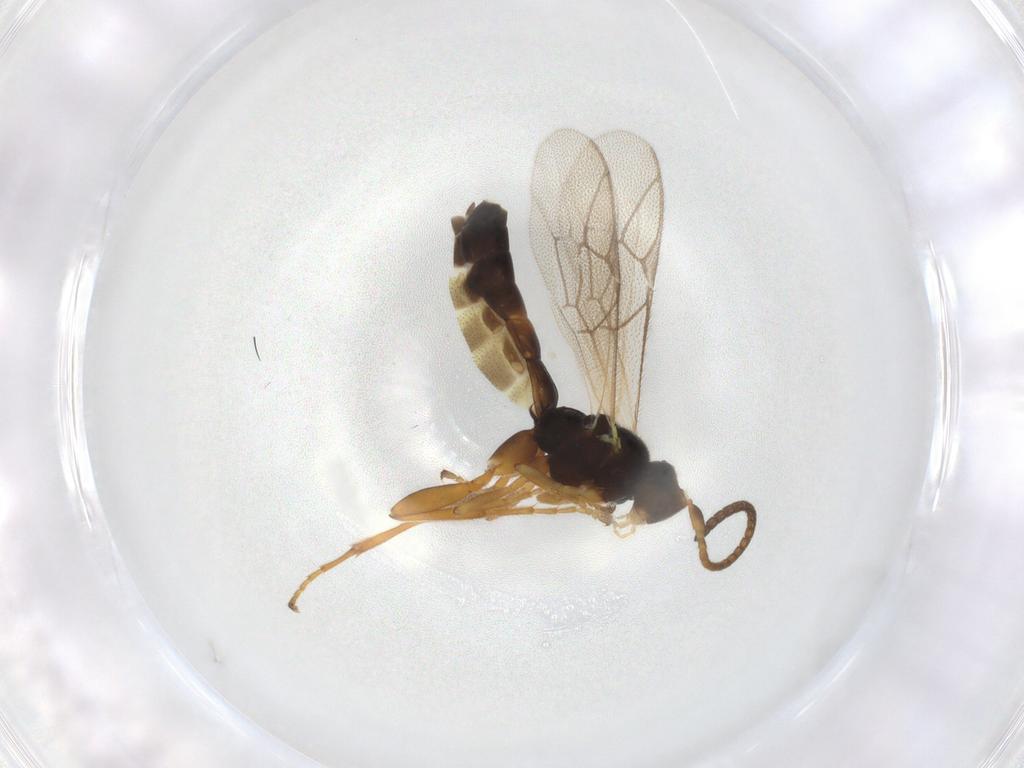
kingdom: Animalia
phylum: Arthropoda
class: Insecta
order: Hymenoptera
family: Ichneumonidae
